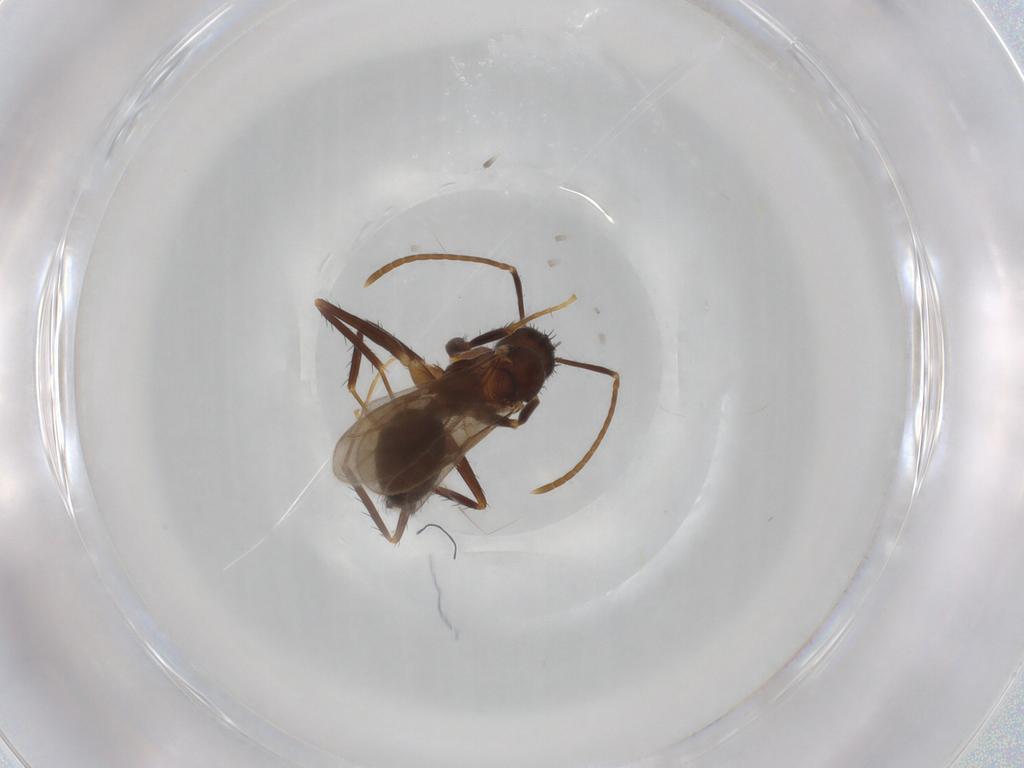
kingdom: Animalia
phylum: Arthropoda
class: Insecta
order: Hymenoptera
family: Formicidae
